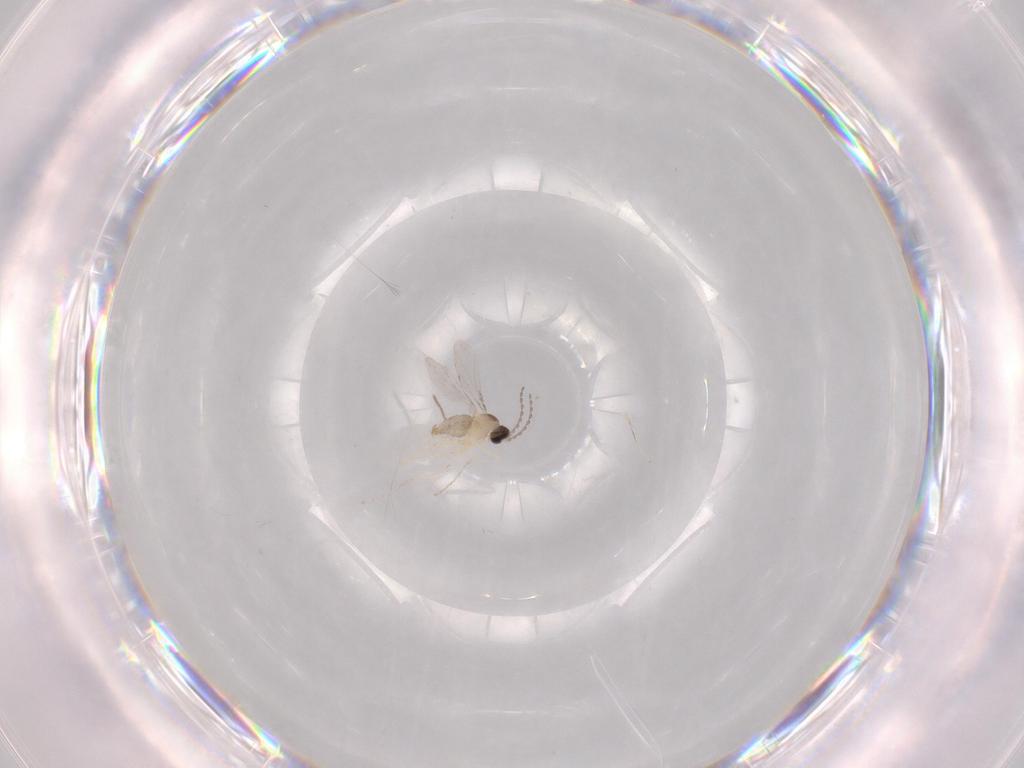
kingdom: Animalia
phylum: Arthropoda
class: Insecta
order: Diptera
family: Cecidomyiidae
